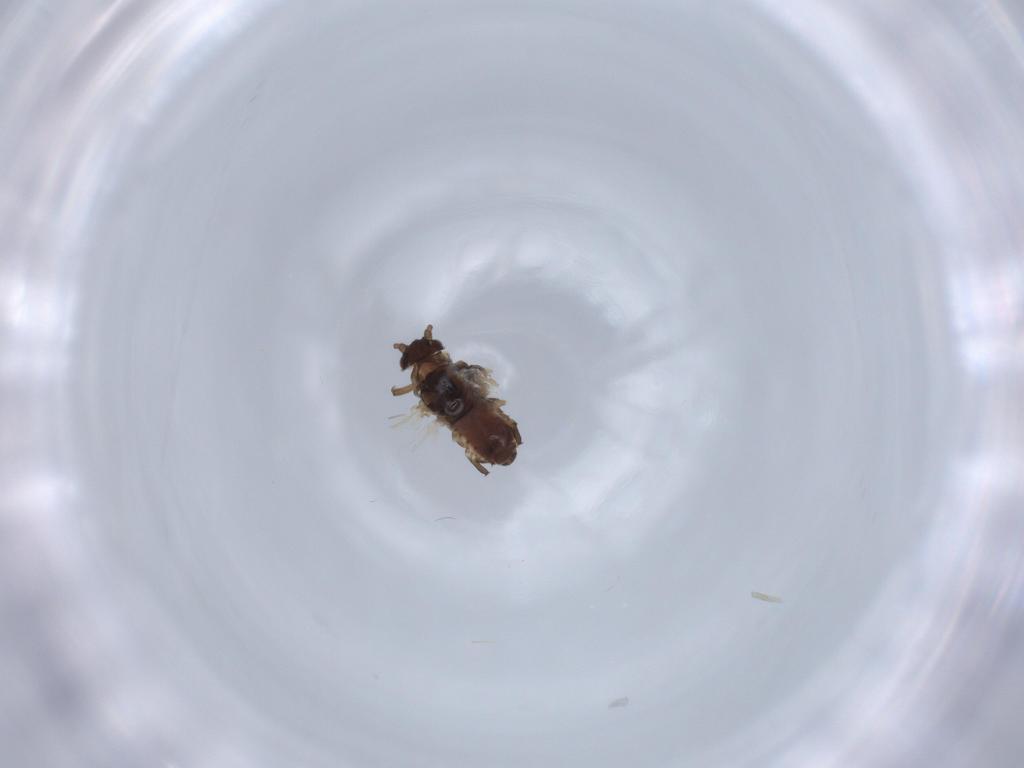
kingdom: Animalia
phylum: Arthropoda
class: Insecta
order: Hemiptera
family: Aphididae
